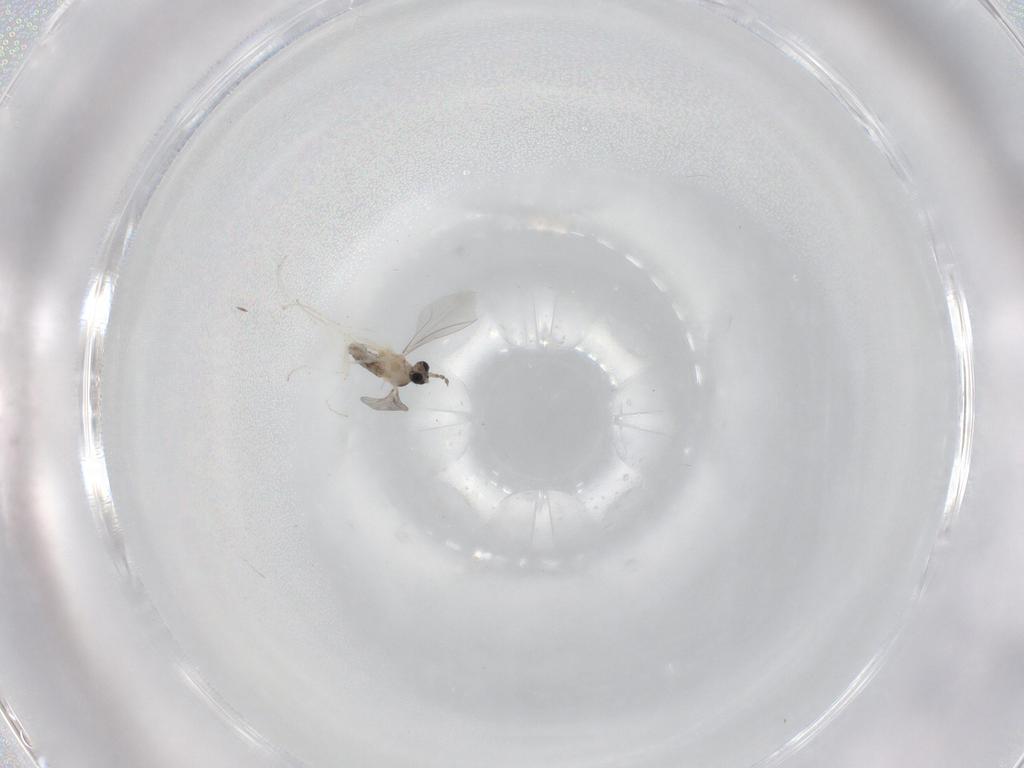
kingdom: Animalia
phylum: Arthropoda
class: Insecta
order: Diptera
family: Cecidomyiidae
